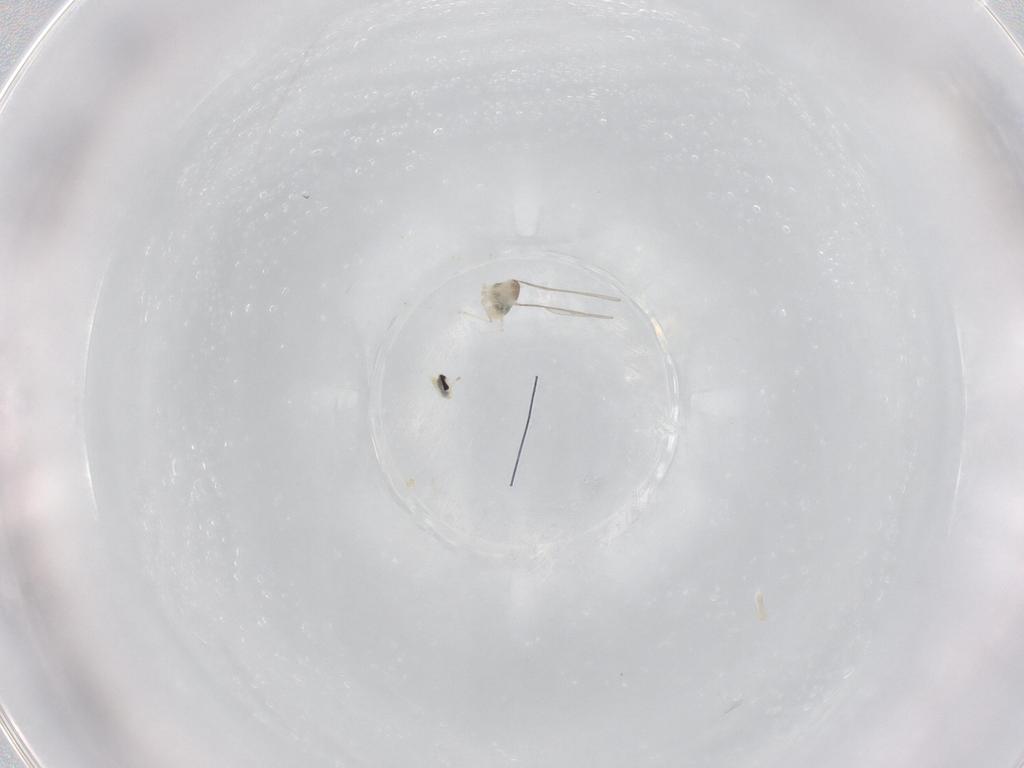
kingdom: Animalia
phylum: Arthropoda
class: Insecta
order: Diptera
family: Cecidomyiidae
